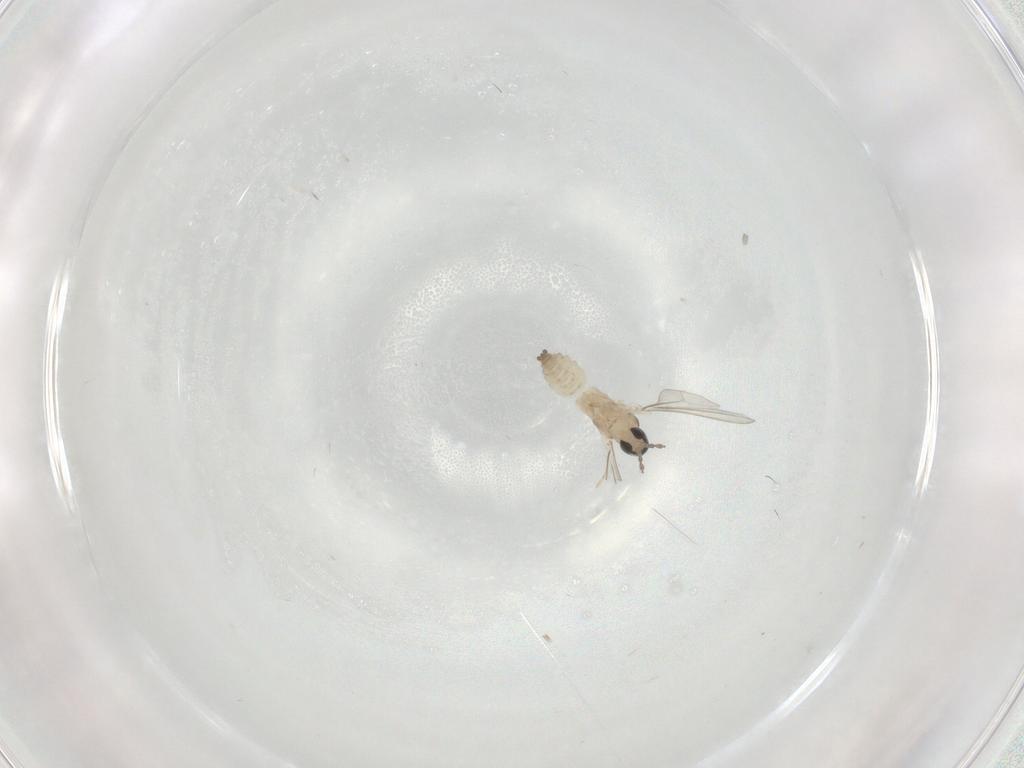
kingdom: Animalia
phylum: Arthropoda
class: Insecta
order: Diptera
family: Cecidomyiidae
